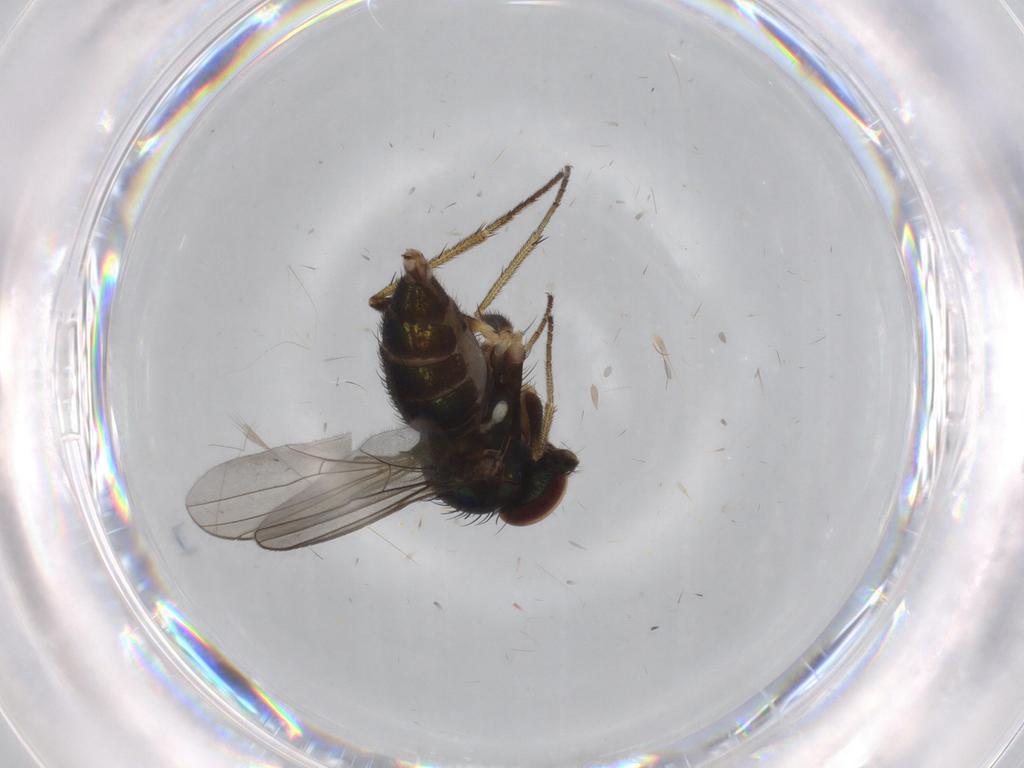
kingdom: Animalia
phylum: Arthropoda
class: Insecta
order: Diptera
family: Dolichopodidae
